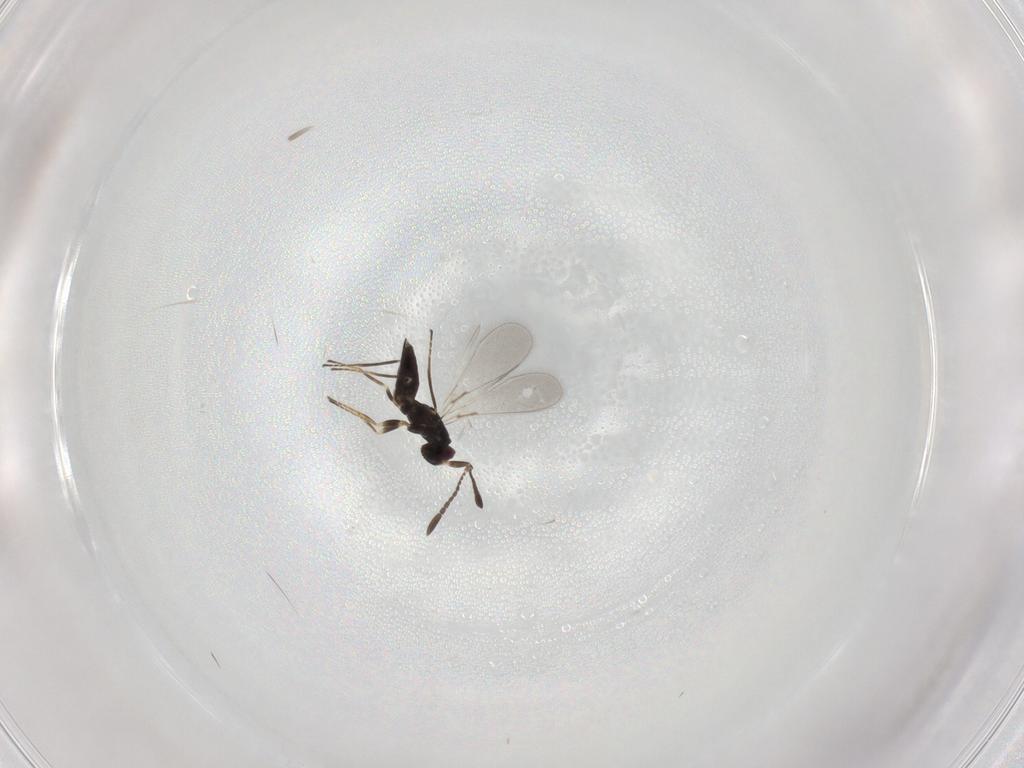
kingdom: Animalia
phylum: Arthropoda
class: Insecta
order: Hymenoptera
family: Mymaridae
